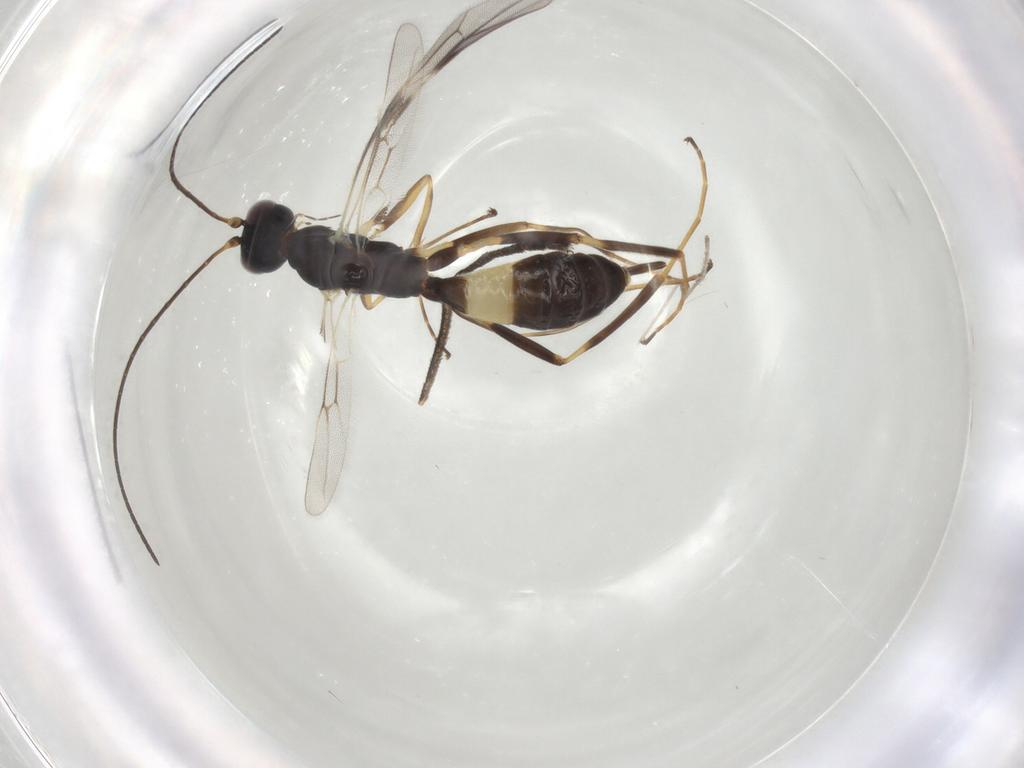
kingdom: Animalia
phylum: Arthropoda
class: Insecta
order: Hymenoptera
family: Ichneumonidae
